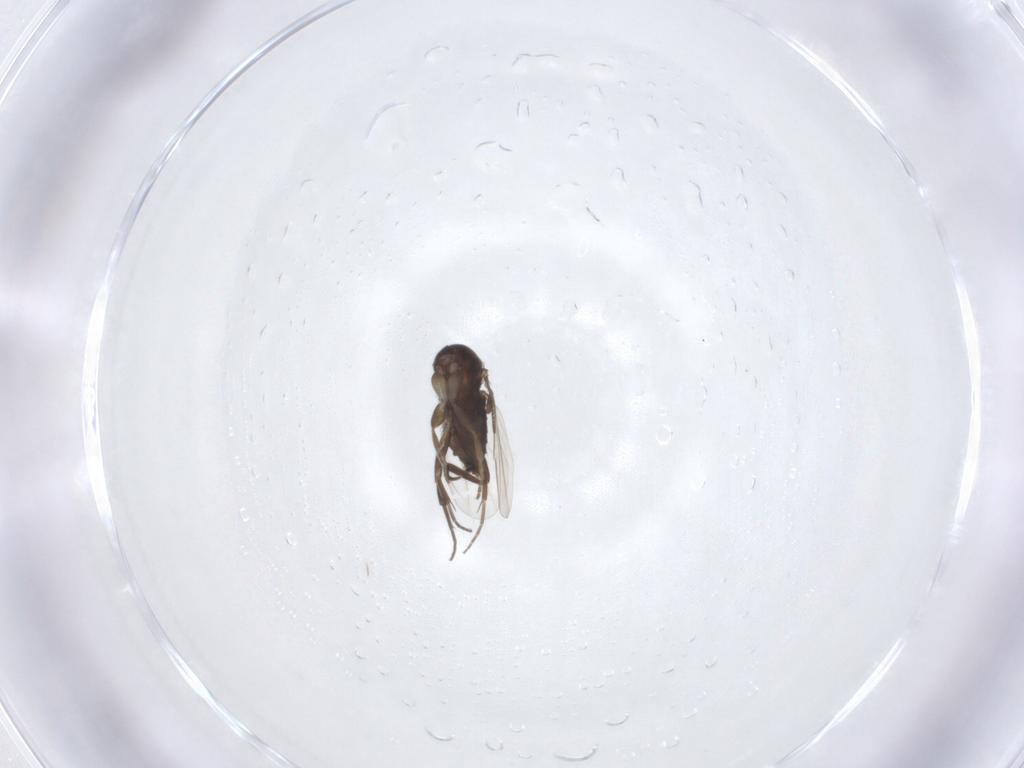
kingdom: Animalia
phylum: Arthropoda
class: Insecta
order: Diptera
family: Phoridae
